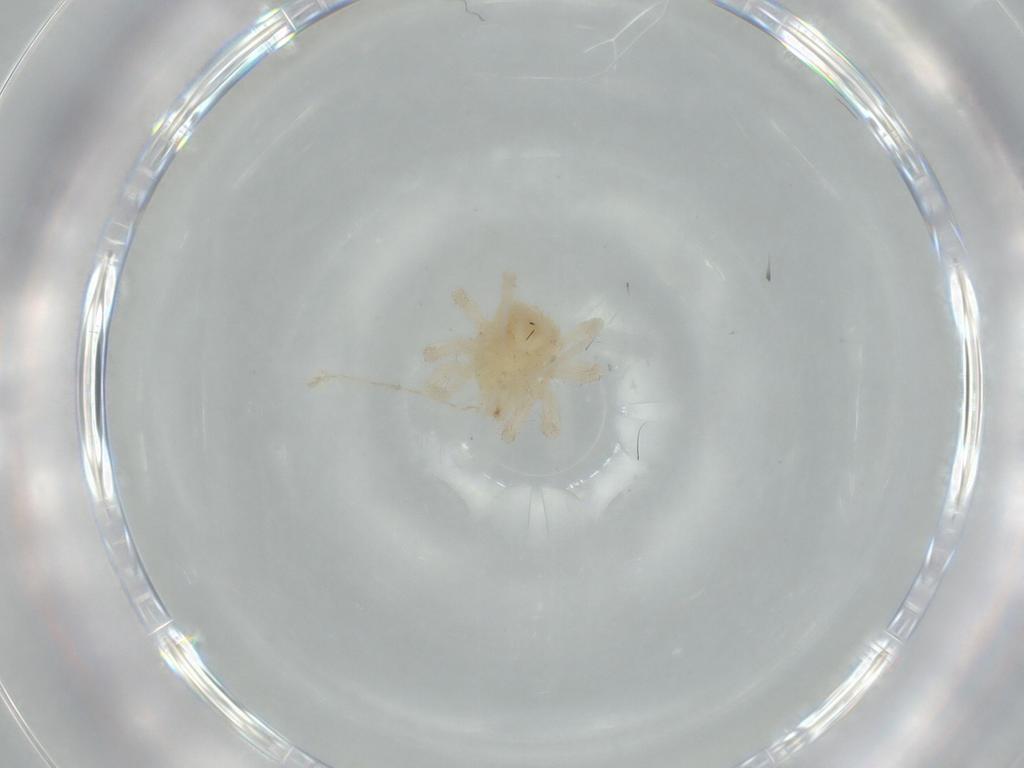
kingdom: Animalia
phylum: Arthropoda
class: Arachnida
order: Trombidiformes
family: Anystidae
